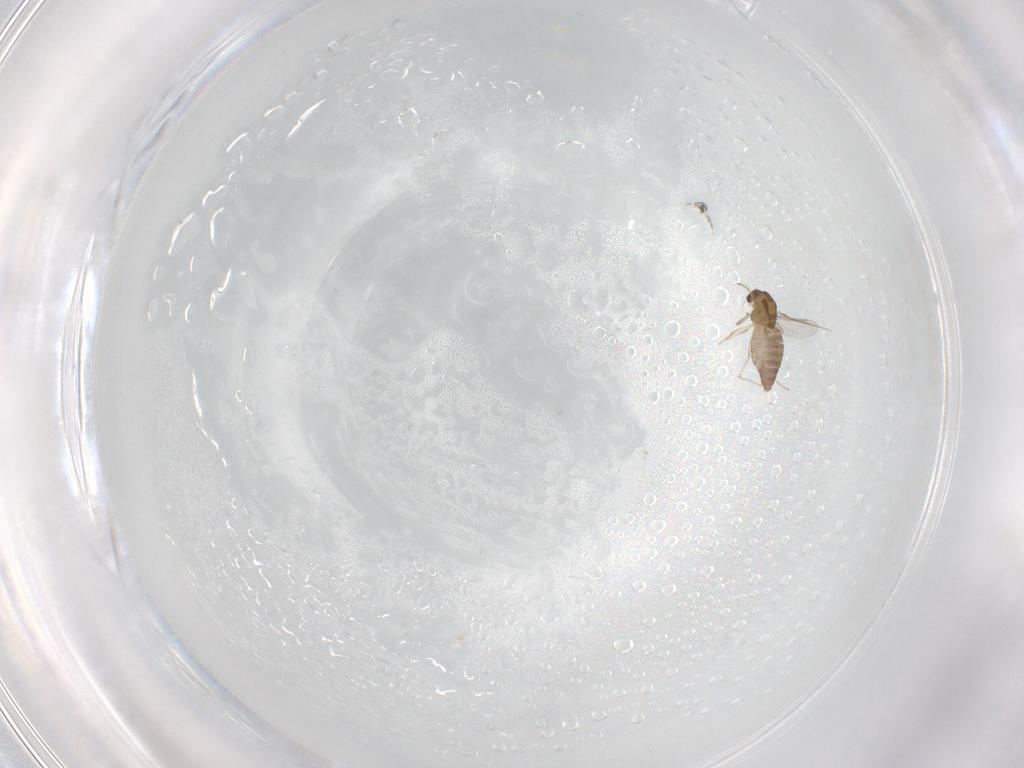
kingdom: Animalia
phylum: Arthropoda
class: Insecta
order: Diptera
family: Chironomidae
